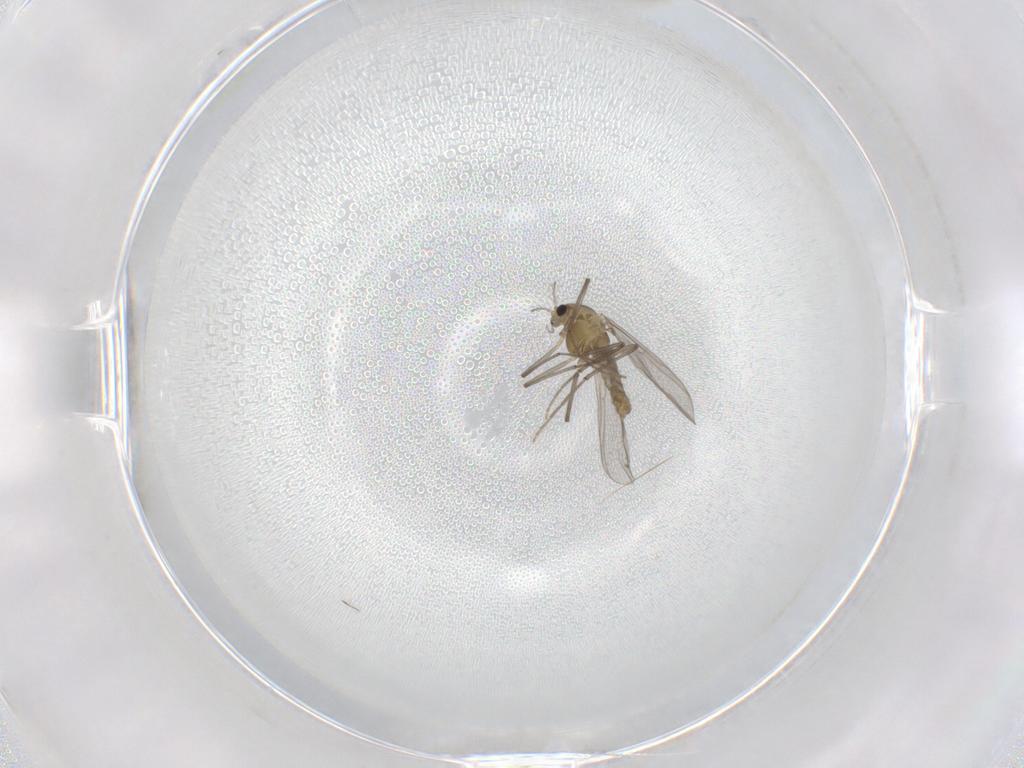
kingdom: Animalia
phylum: Arthropoda
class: Insecta
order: Diptera
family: Chironomidae
